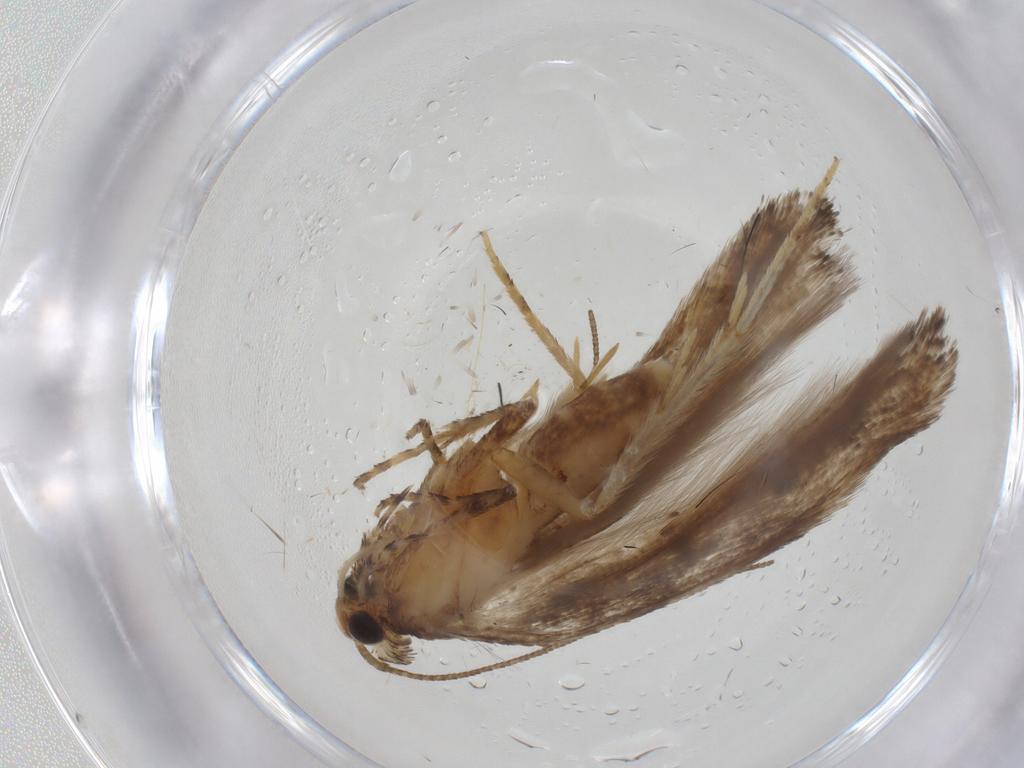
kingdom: Animalia
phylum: Arthropoda
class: Insecta
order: Lepidoptera
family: Gelechiidae
